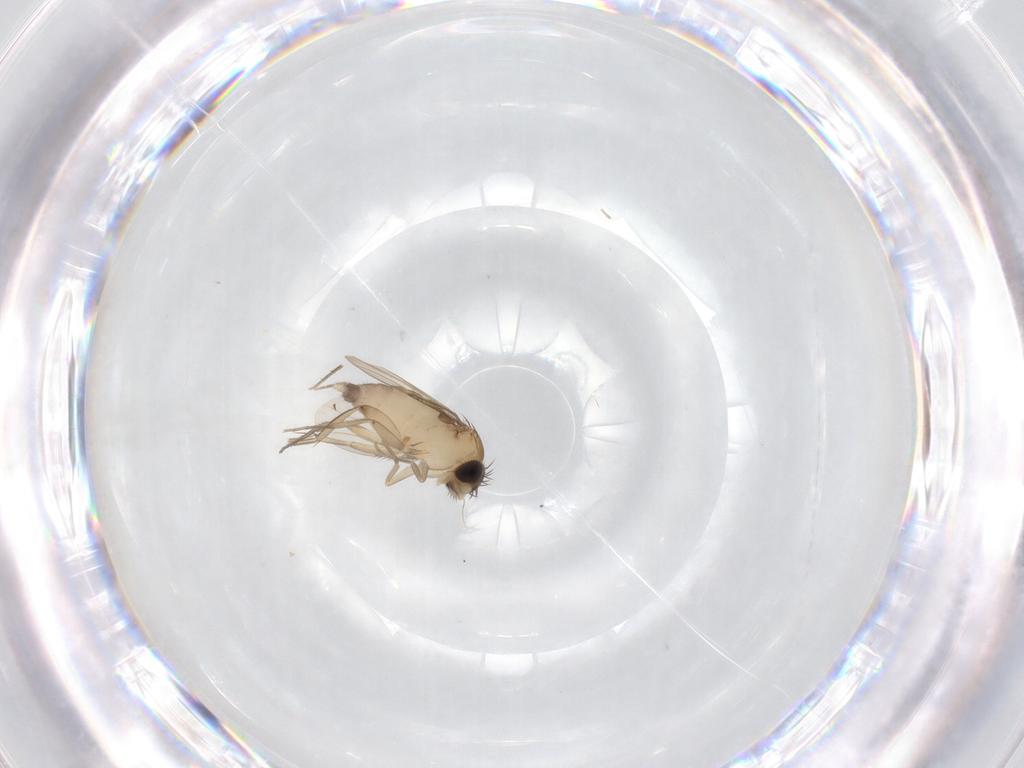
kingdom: Animalia
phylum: Arthropoda
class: Insecta
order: Diptera
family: Phoridae
